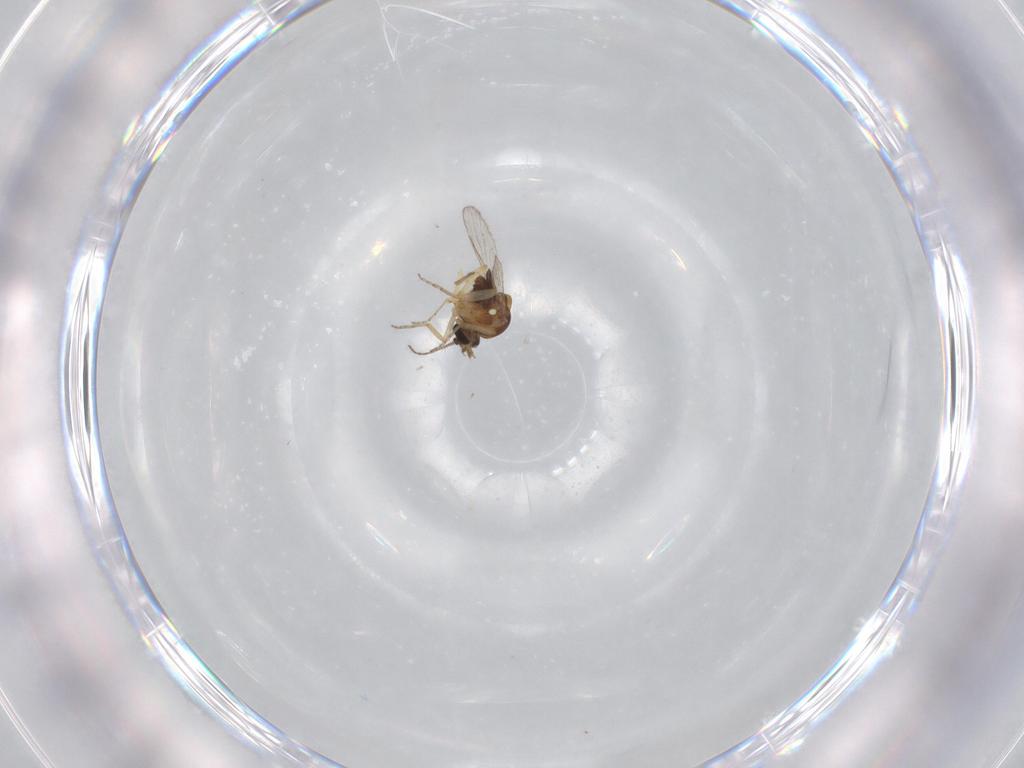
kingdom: Animalia
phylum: Arthropoda
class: Insecta
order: Diptera
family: Ceratopogonidae
